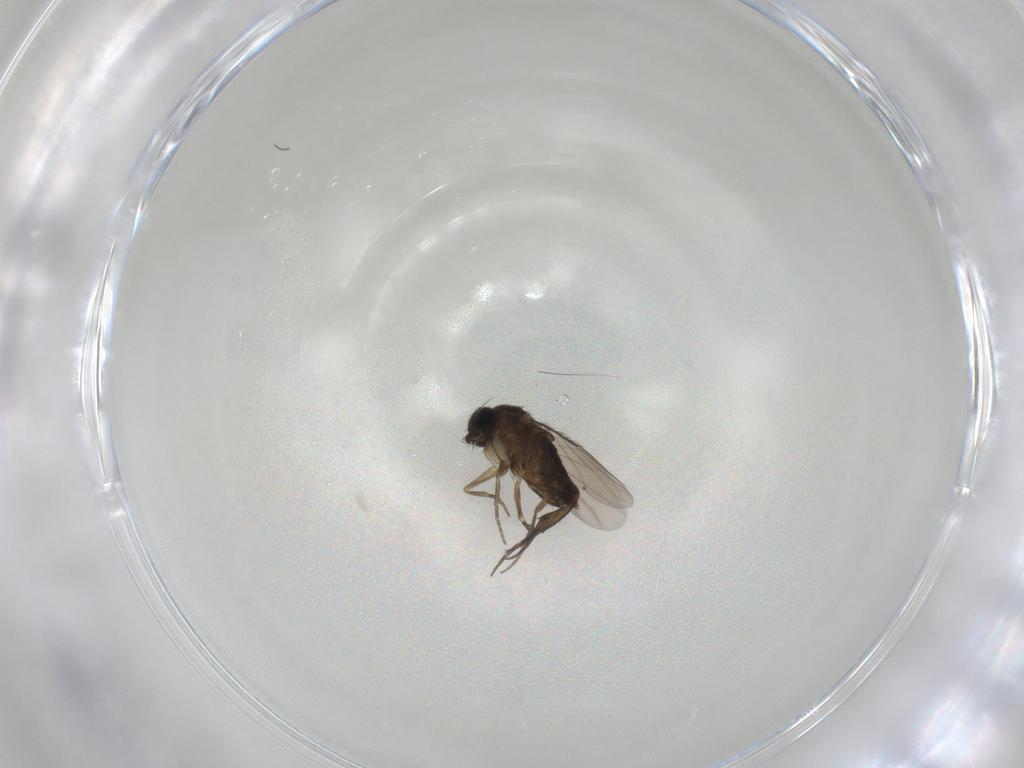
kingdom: Animalia
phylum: Arthropoda
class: Insecta
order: Diptera
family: Phoridae
